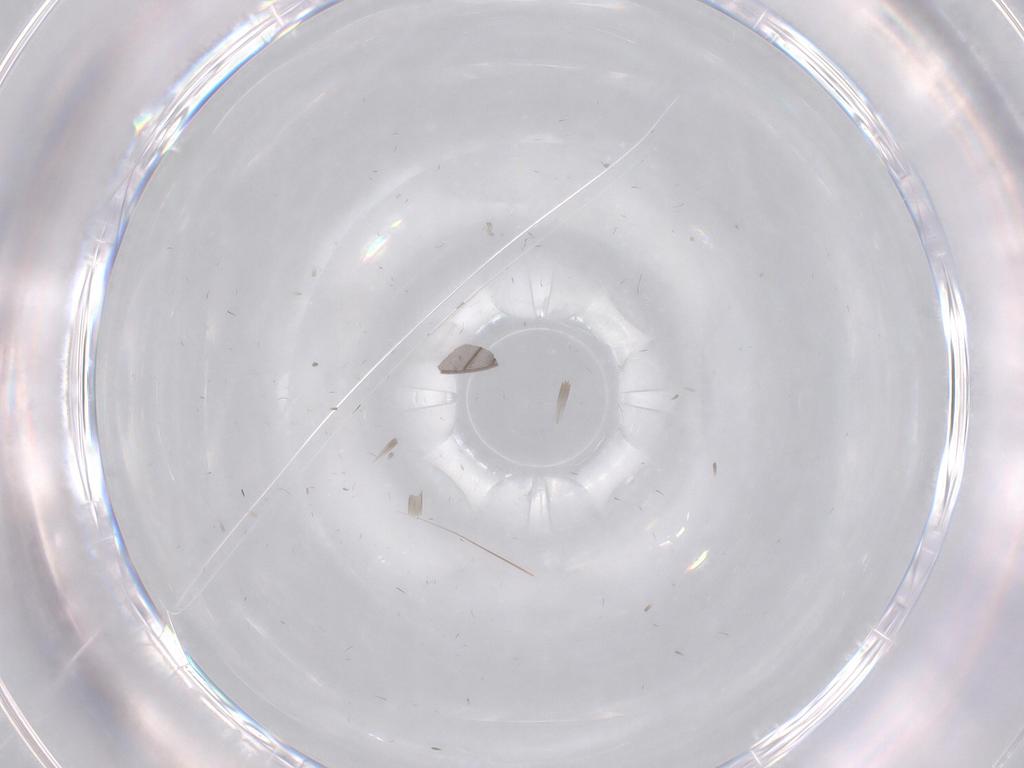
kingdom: Animalia
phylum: Arthropoda
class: Insecta
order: Diptera
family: Psychodidae
